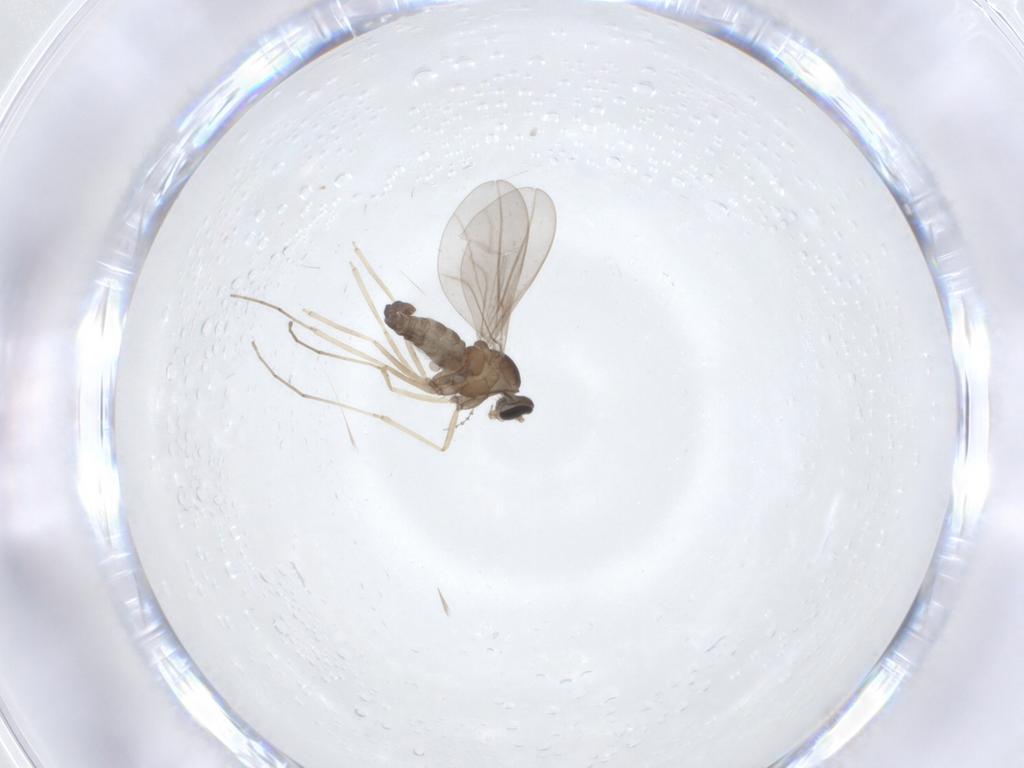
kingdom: Animalia
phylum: Arthropoda
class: Insecta
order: Diptera
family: Cecidomyiidae
